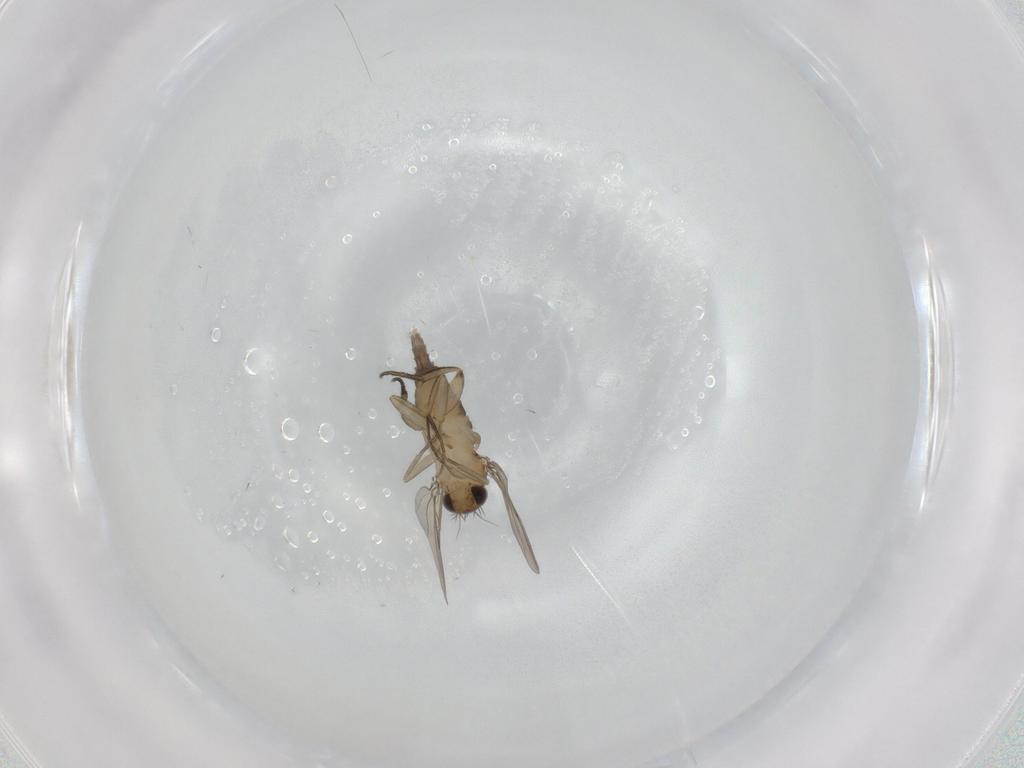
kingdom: Animalia
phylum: Arthropoda
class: Insecta
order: Diptera
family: Phoridae
